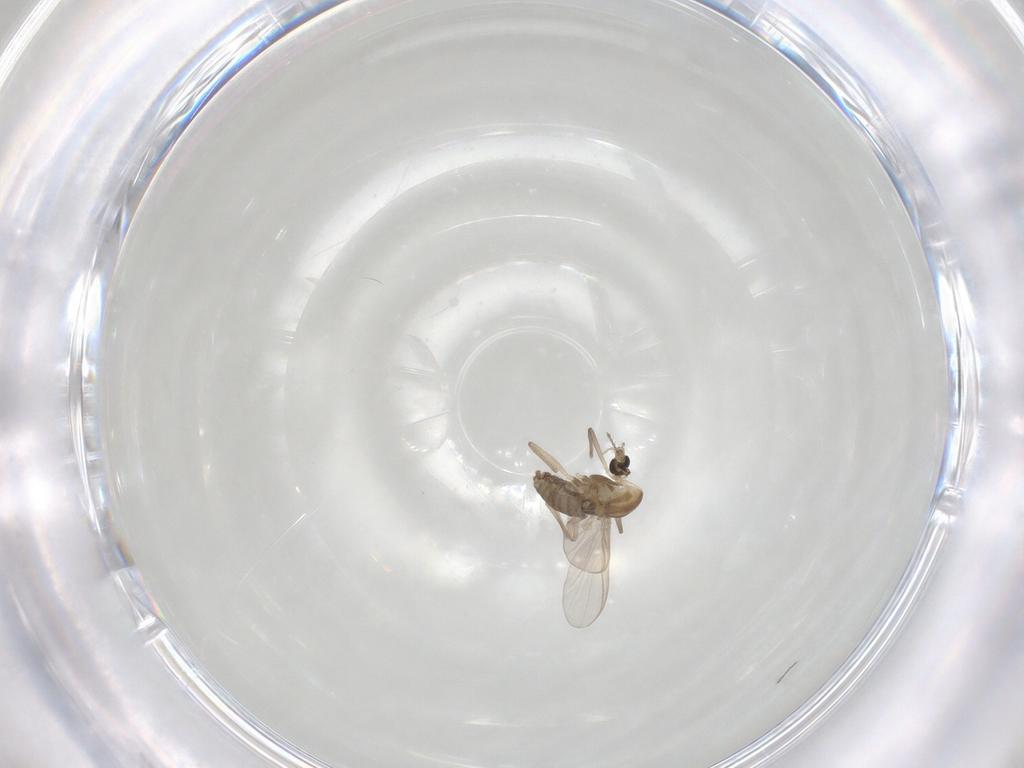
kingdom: Animalia
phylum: Arthropoda
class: Insecta
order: Diptera
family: Chironomidae
